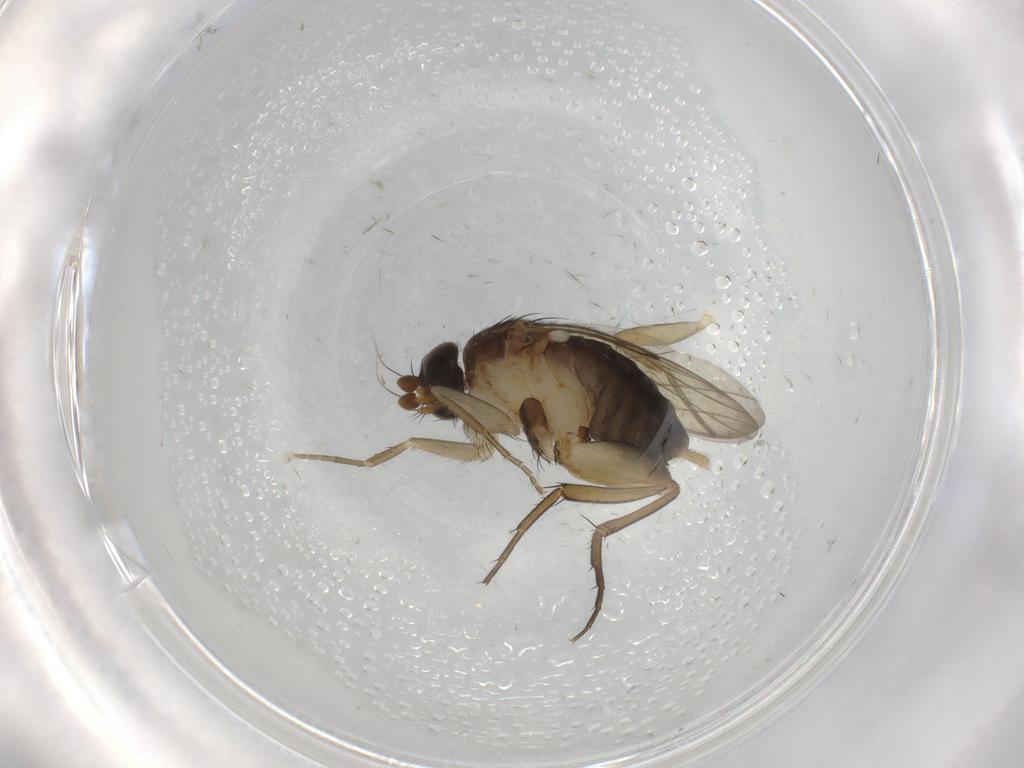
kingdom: Animalia
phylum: Arthropoda
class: Insecta
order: Diptera
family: Phoridae
